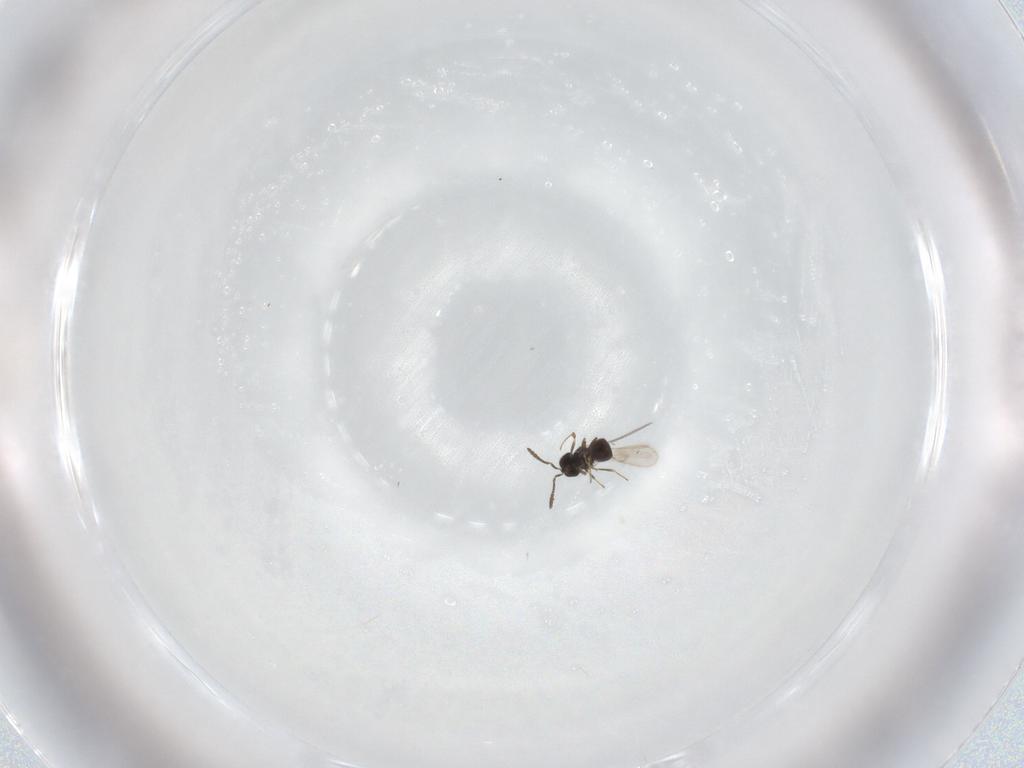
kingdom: Animalia
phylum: Arthropoda
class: Insecta
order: Hymenoptera
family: Scelionidae
